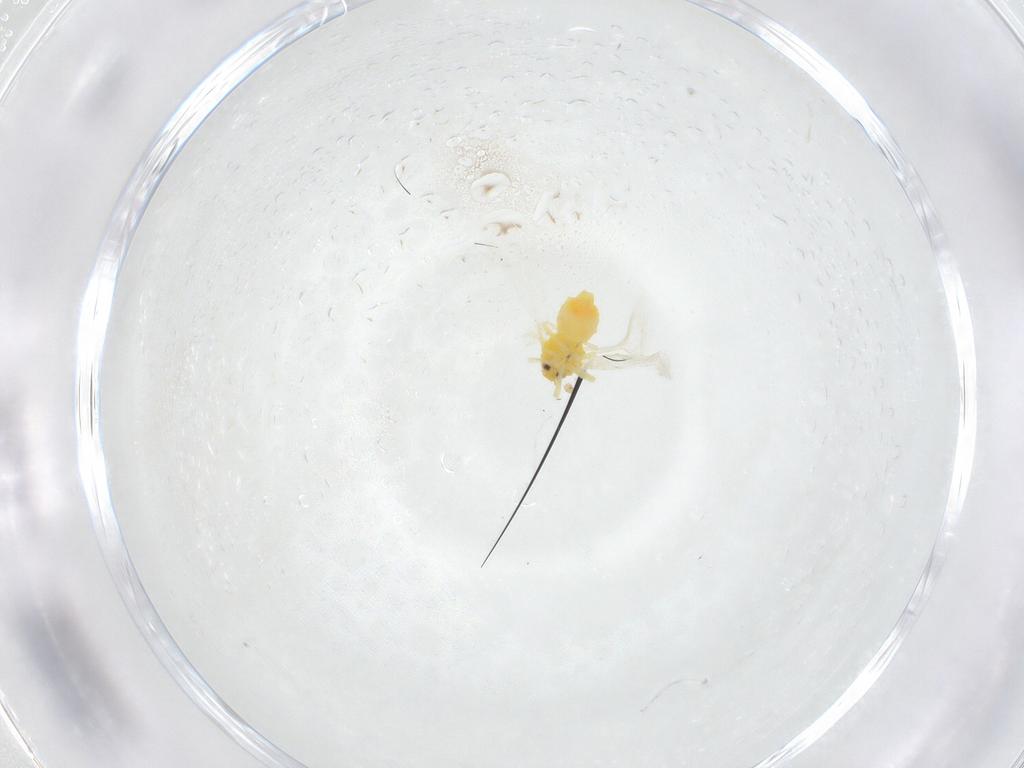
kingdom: Animalia
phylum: Arthropoda
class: Insecta
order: Hemiptera
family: Aleyrodidae
